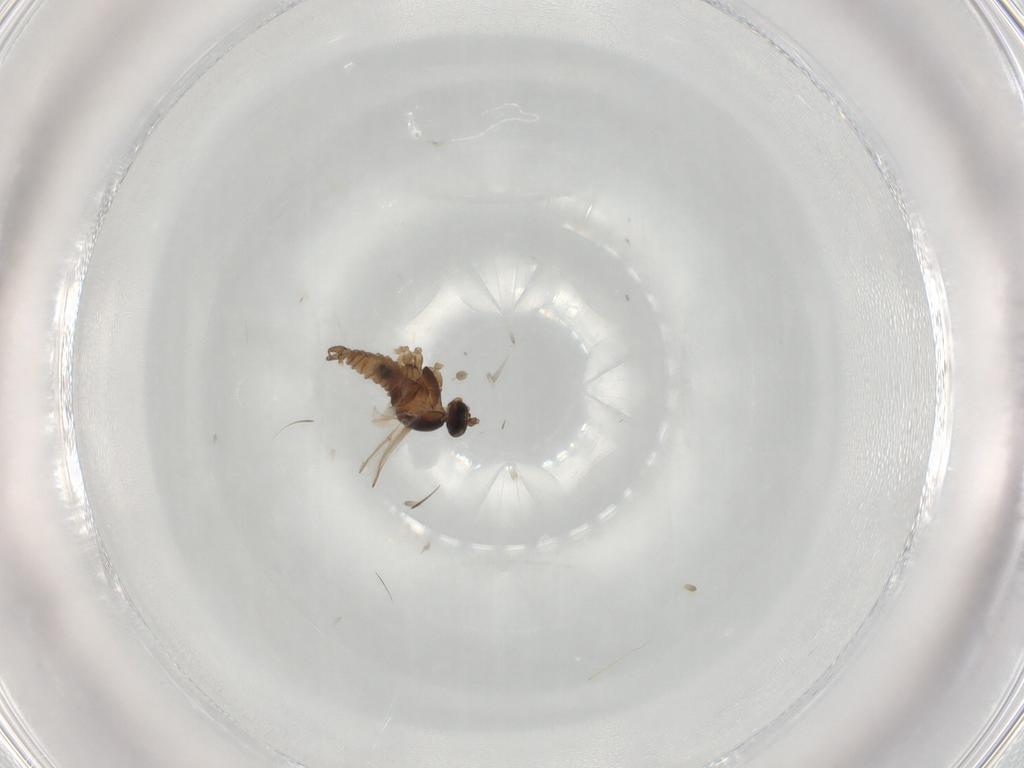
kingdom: Animalia
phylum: Arthropoda
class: Insecta
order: Diptera
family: Cecidomyiidae
